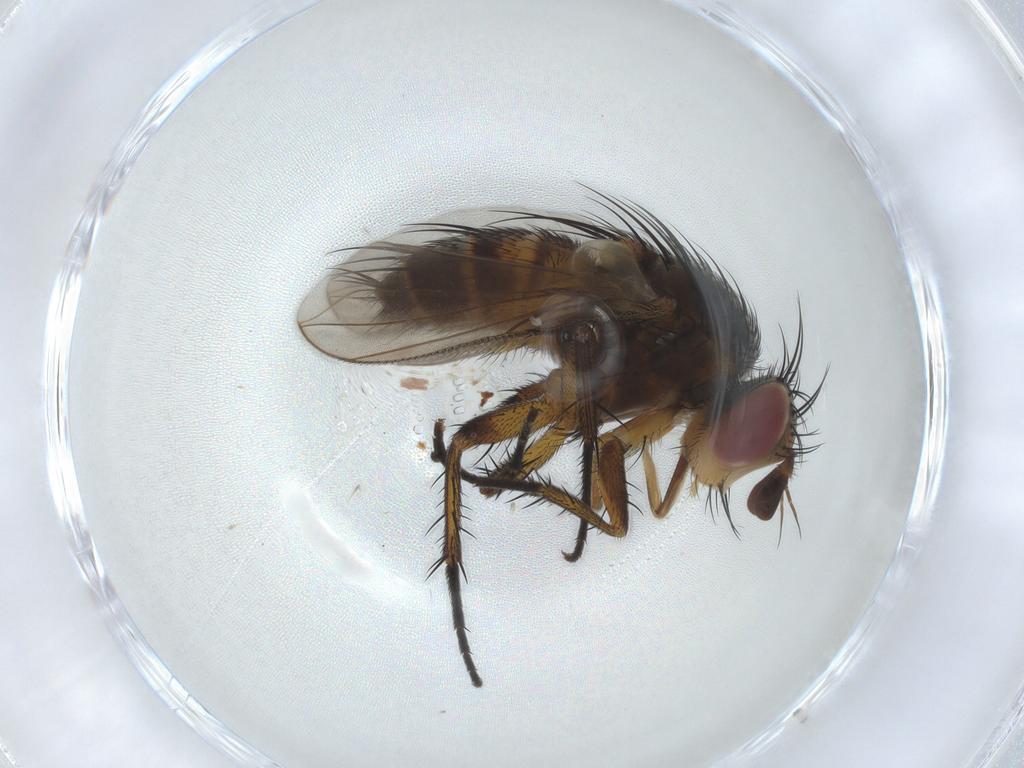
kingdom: Animalia
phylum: Arthropoda
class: Insecta
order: Diptera
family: Tachinidae
